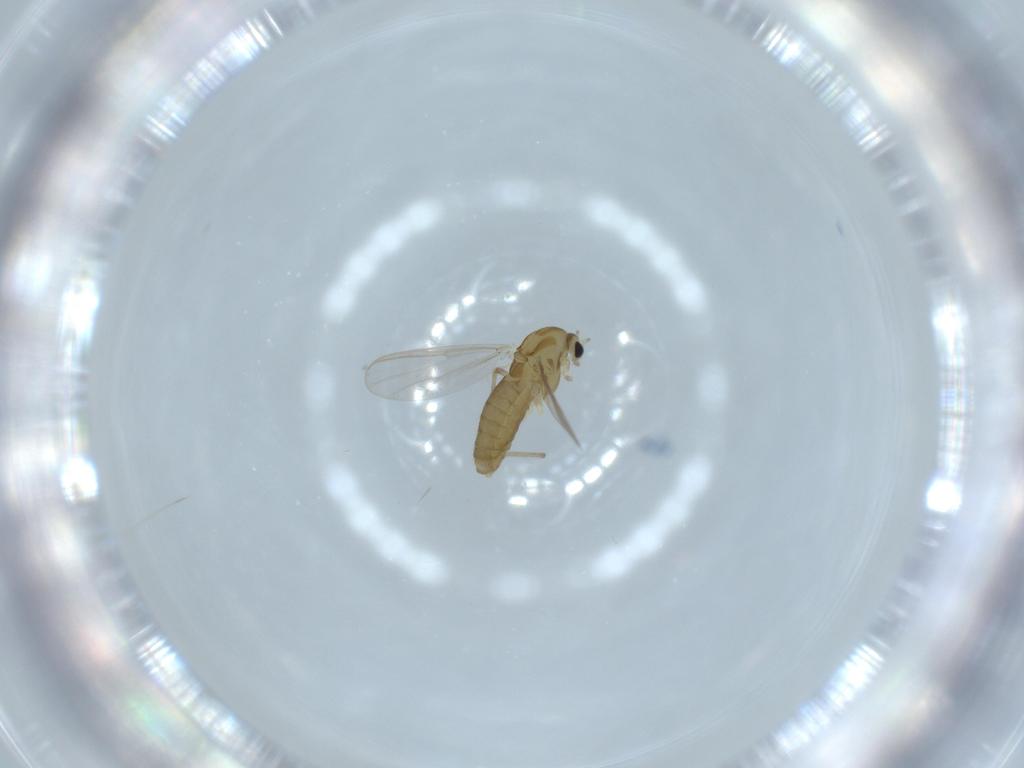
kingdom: Animalia
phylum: Arthropoda
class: Insecta
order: Diptera
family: Chironomidae
